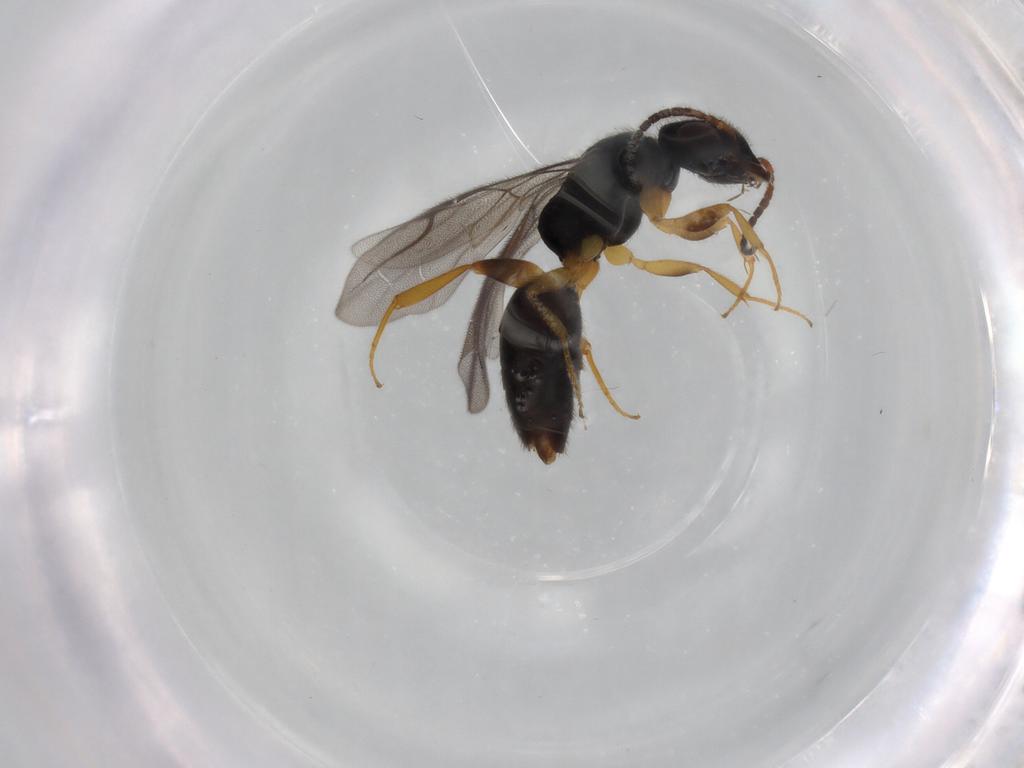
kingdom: Animalia
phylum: Arthropoda
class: Insecta
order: Hymenoptera
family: Bethylidae
